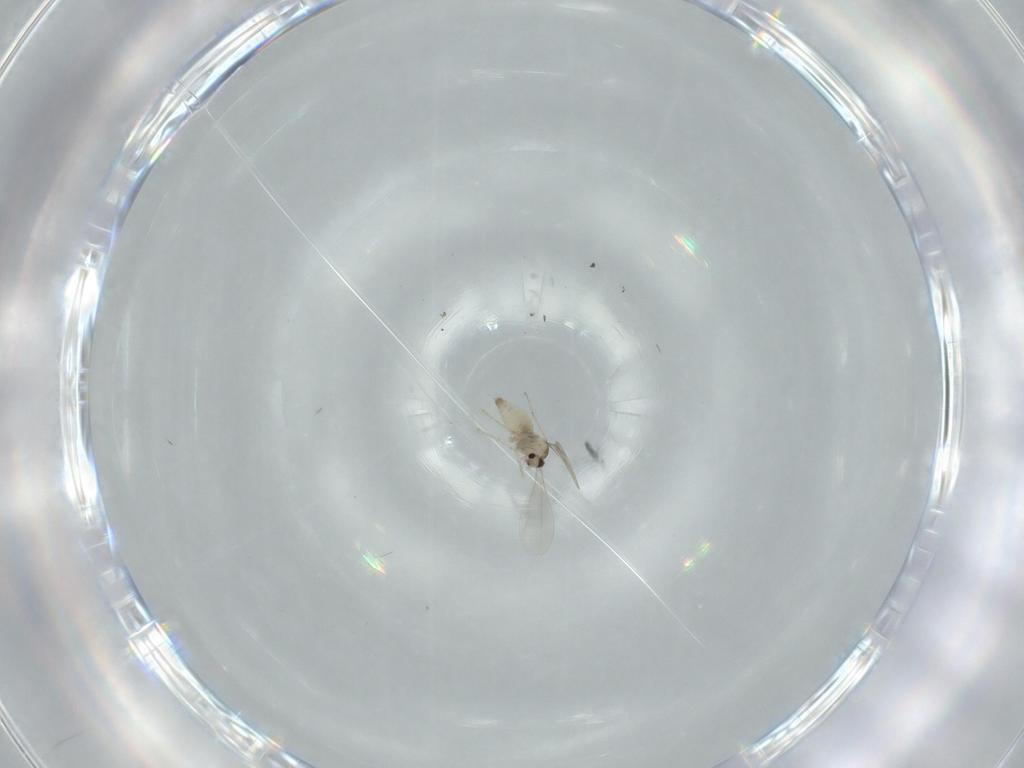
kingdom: Animalia
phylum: Arthropoda
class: Insecta
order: Diptera
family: Cecidomyiidae
